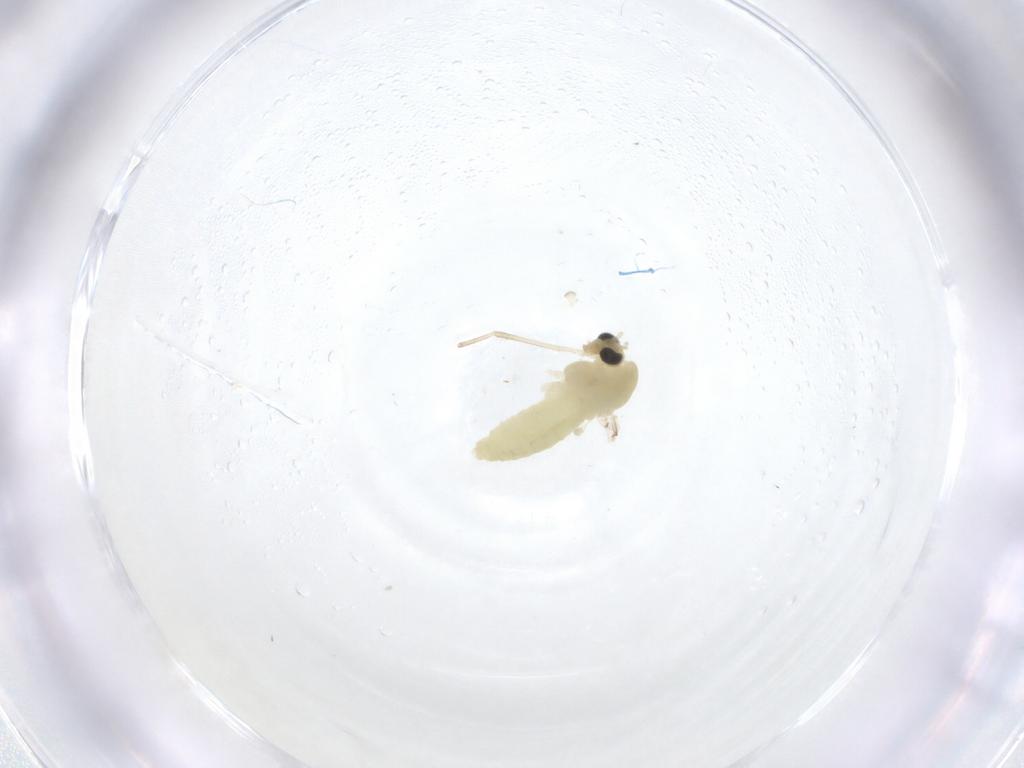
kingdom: Animalia
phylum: Arthropoda
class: Insecta
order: Diptera
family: Chironomidae
